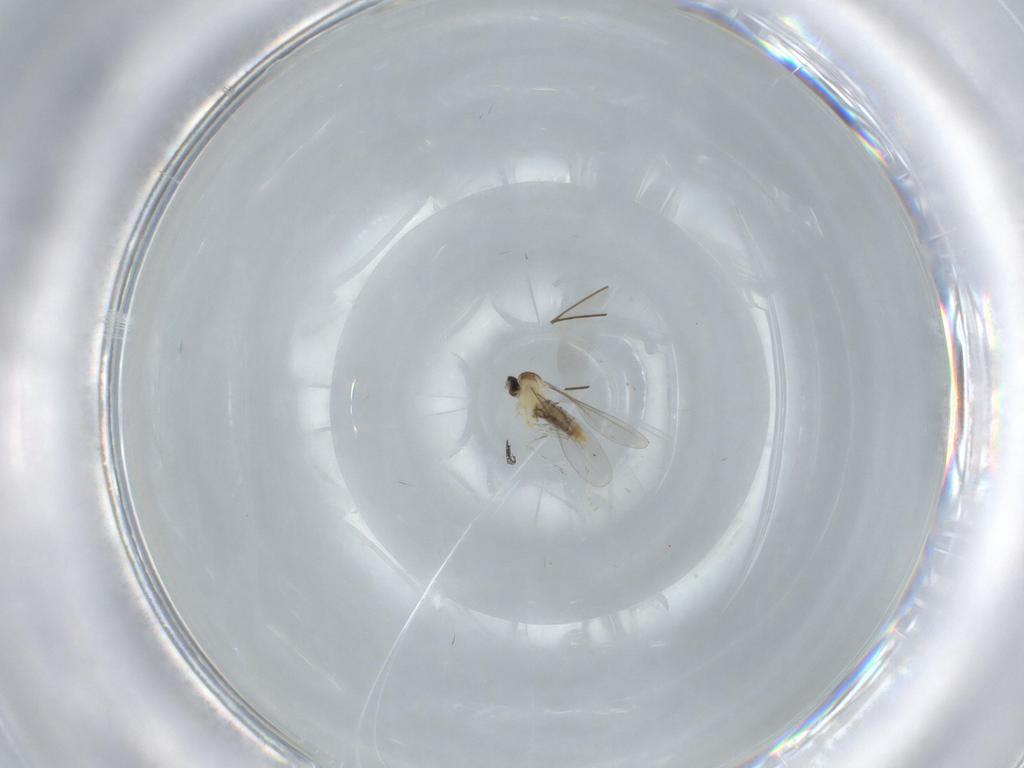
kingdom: Animalia
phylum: Arthropoda
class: Insecta
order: Diptera
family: Cecidomyiidae
